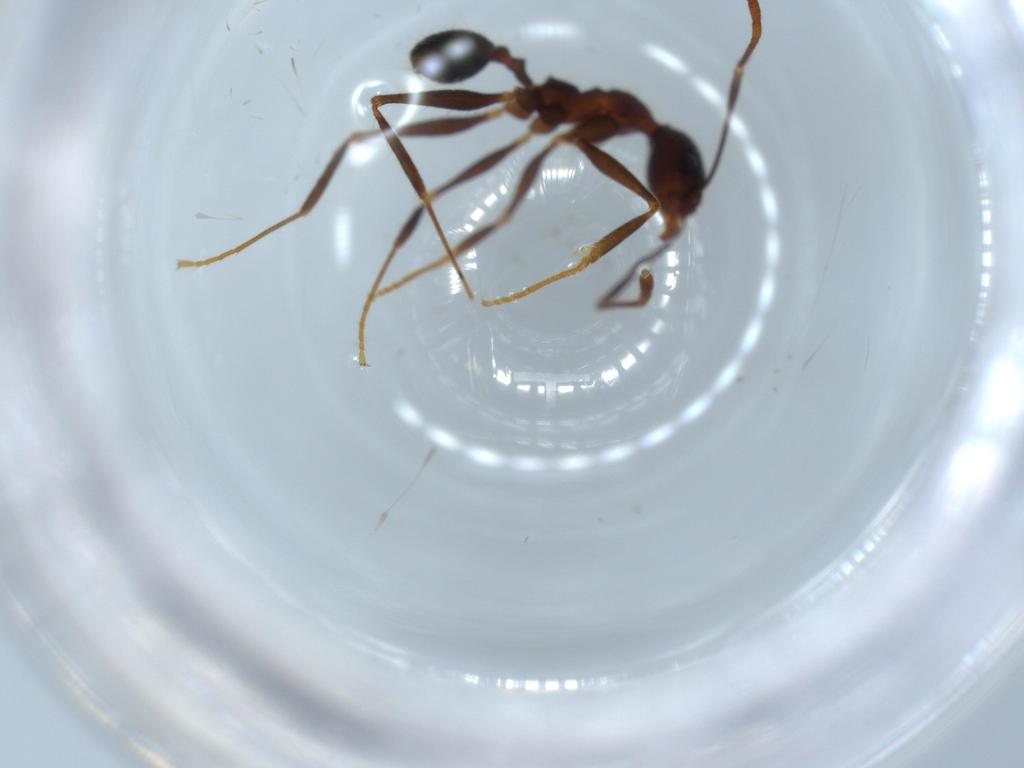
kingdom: Animalia
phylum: Arthropoda
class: Insecta
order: Hymenoptera
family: Formicidae
